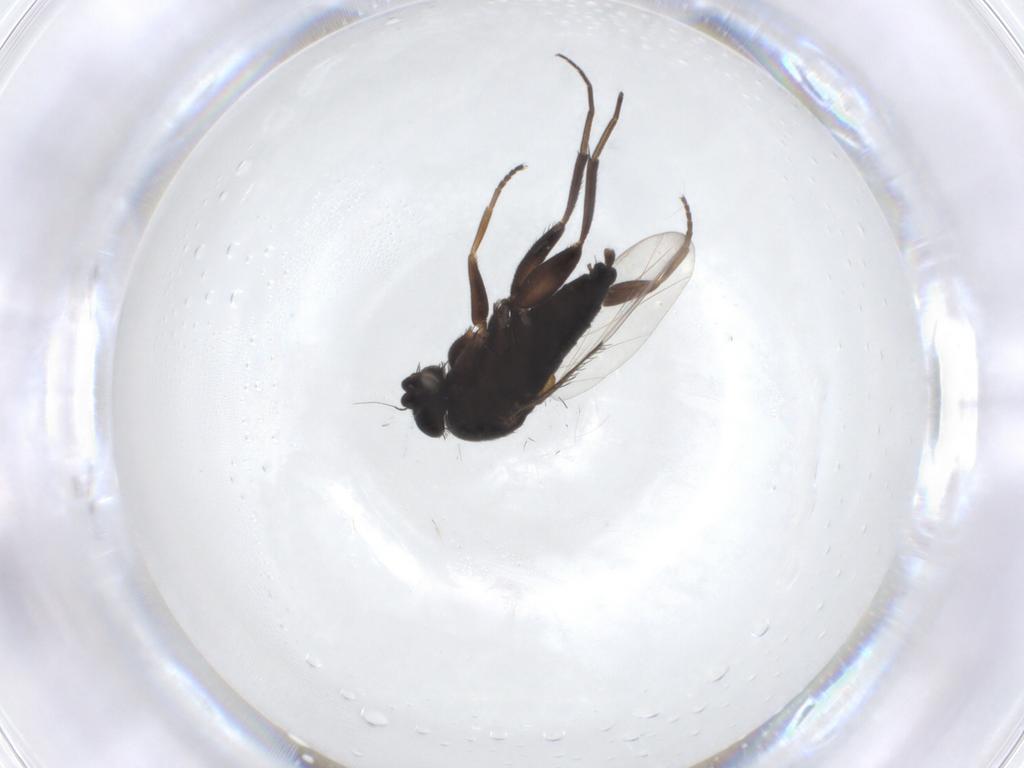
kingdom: Animalia
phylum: Arthropoda
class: Insecta
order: Diptera
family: Phoridae
